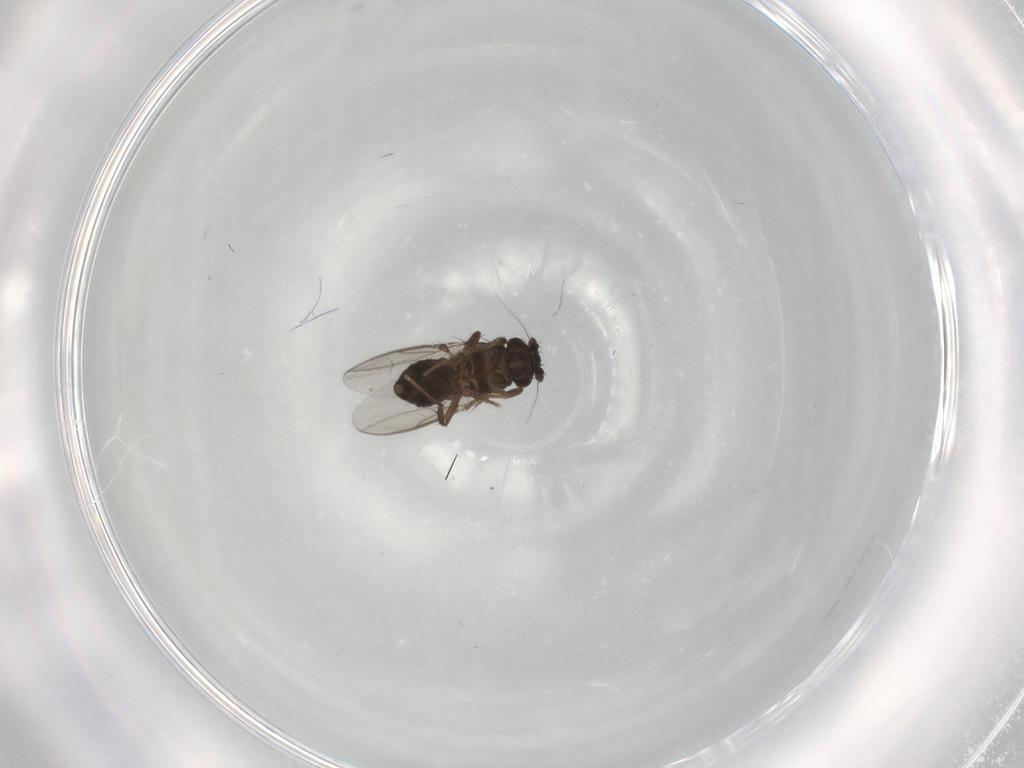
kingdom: Animalia
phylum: Arthropoda
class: Insecta
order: Diptera
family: Sphaeroceridae
